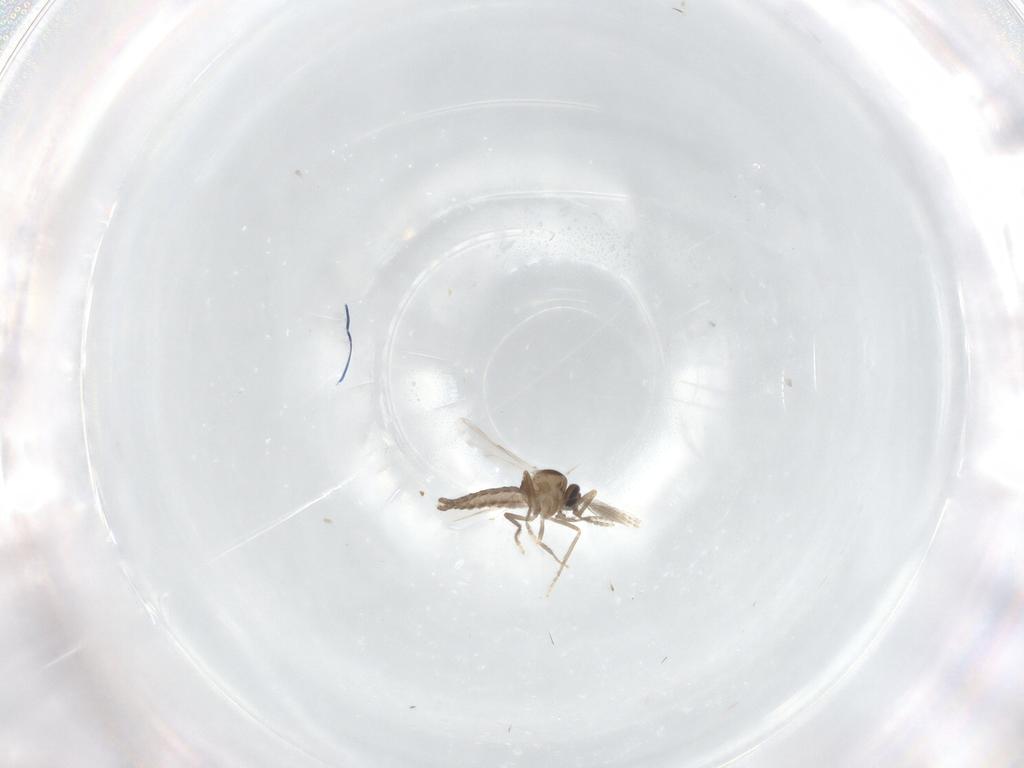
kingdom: Animalia
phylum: Arthropoda
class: Insecta
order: Diptera
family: Ceratopogonidae
